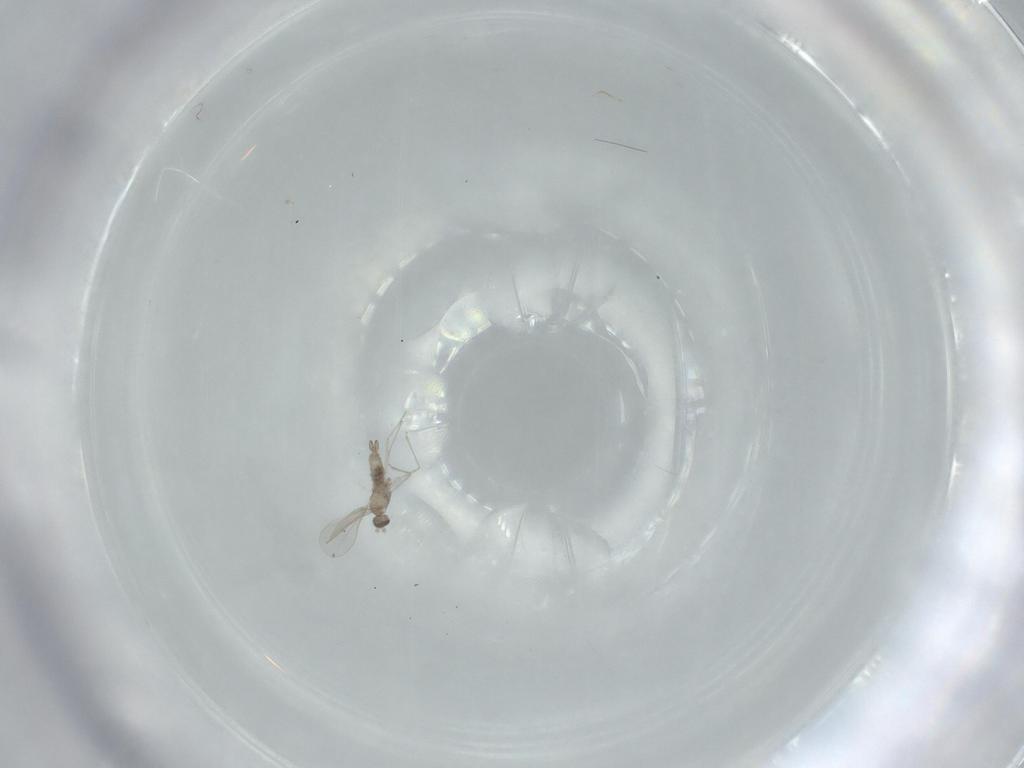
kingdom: Animalia
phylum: Arthropoda
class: Insecta
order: Diptera
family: Cecidomyiidae
